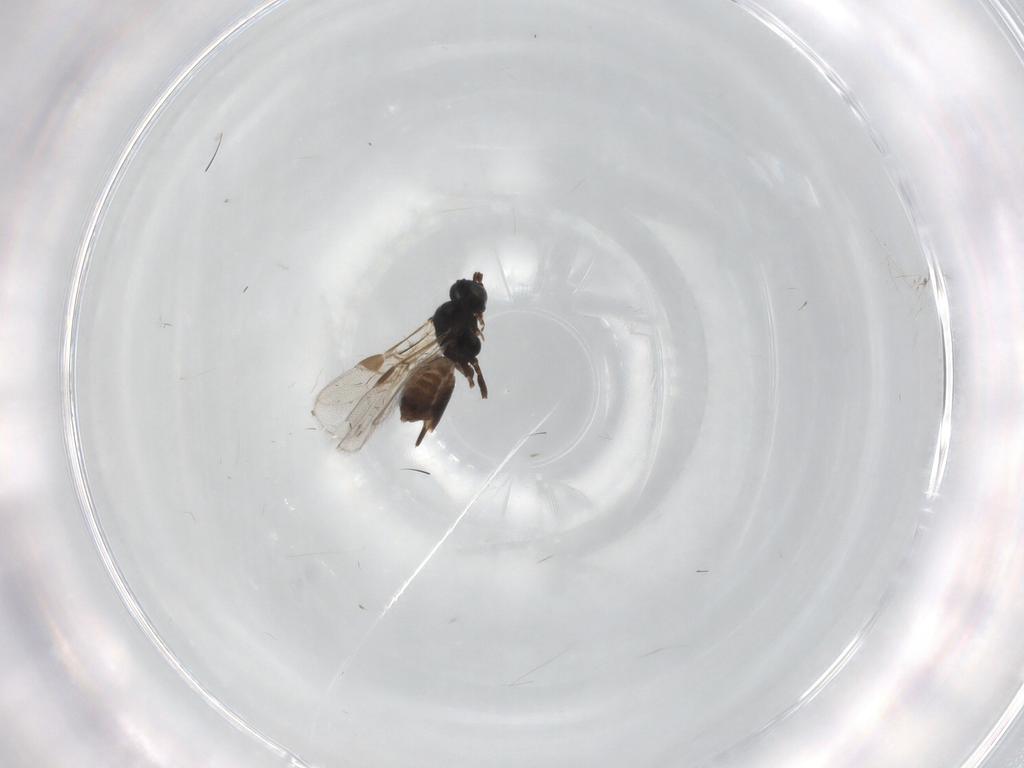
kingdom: Animalia
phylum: Arthropoda
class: Insecta
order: Hymenoptera
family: Braconidae
